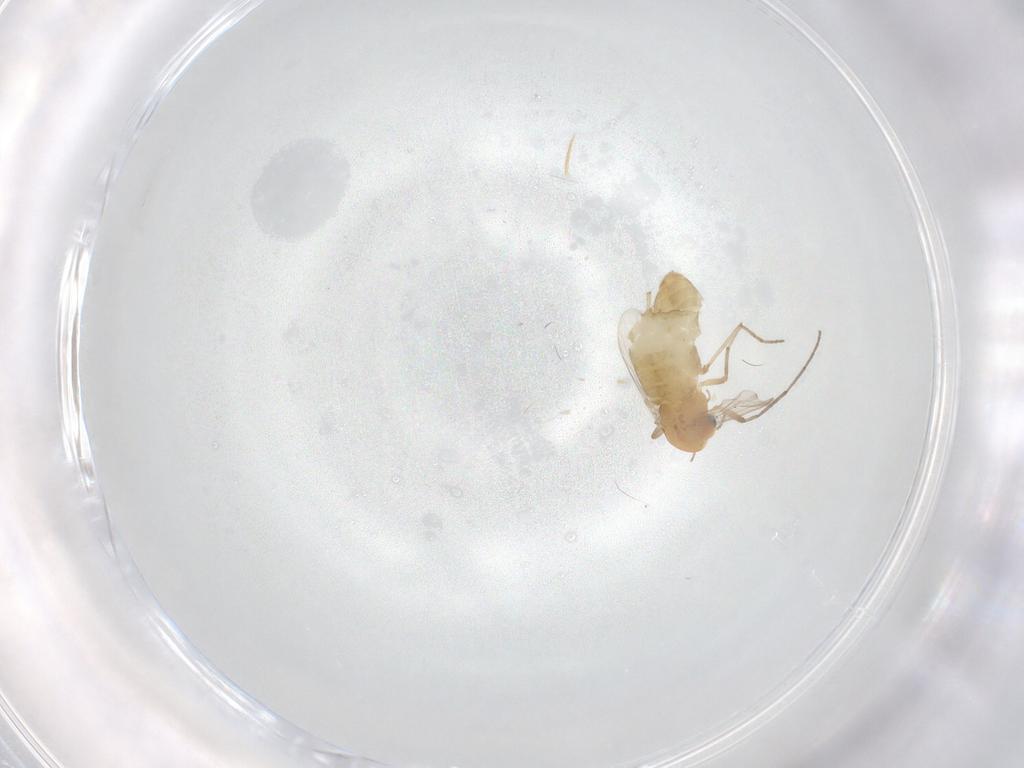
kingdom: Animalia
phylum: Arthropoda
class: Insecta
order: Diptera
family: Chironomidae
